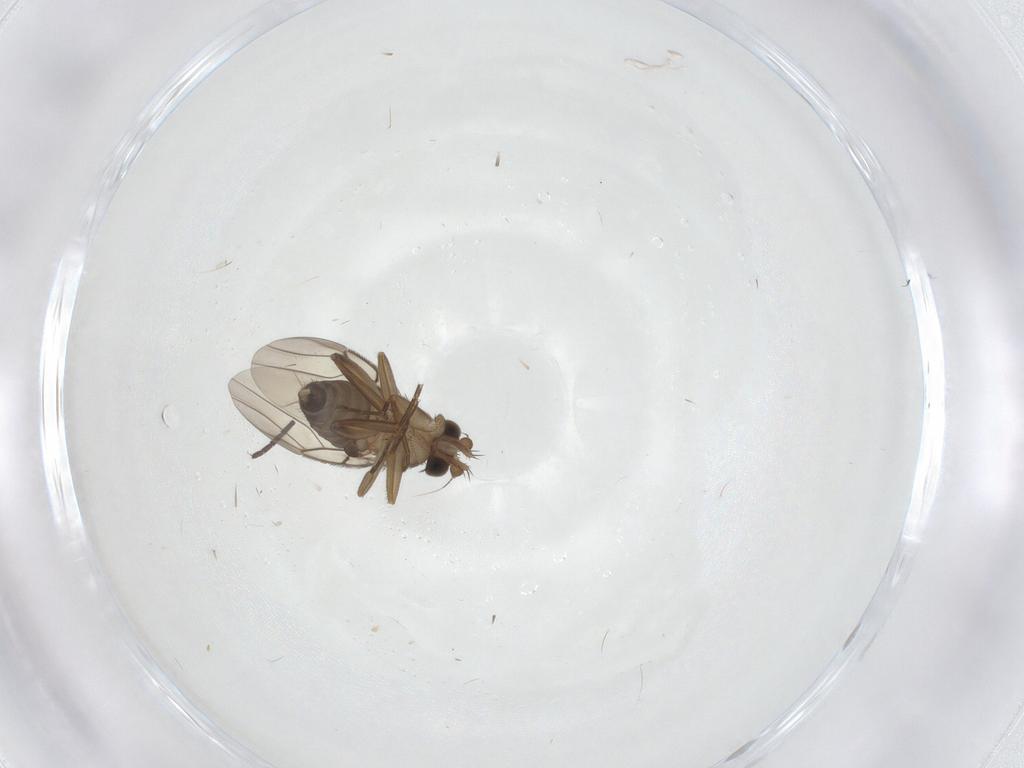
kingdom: Animalia
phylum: Arthropoda
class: Insecta
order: Diptera
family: Phoridae
